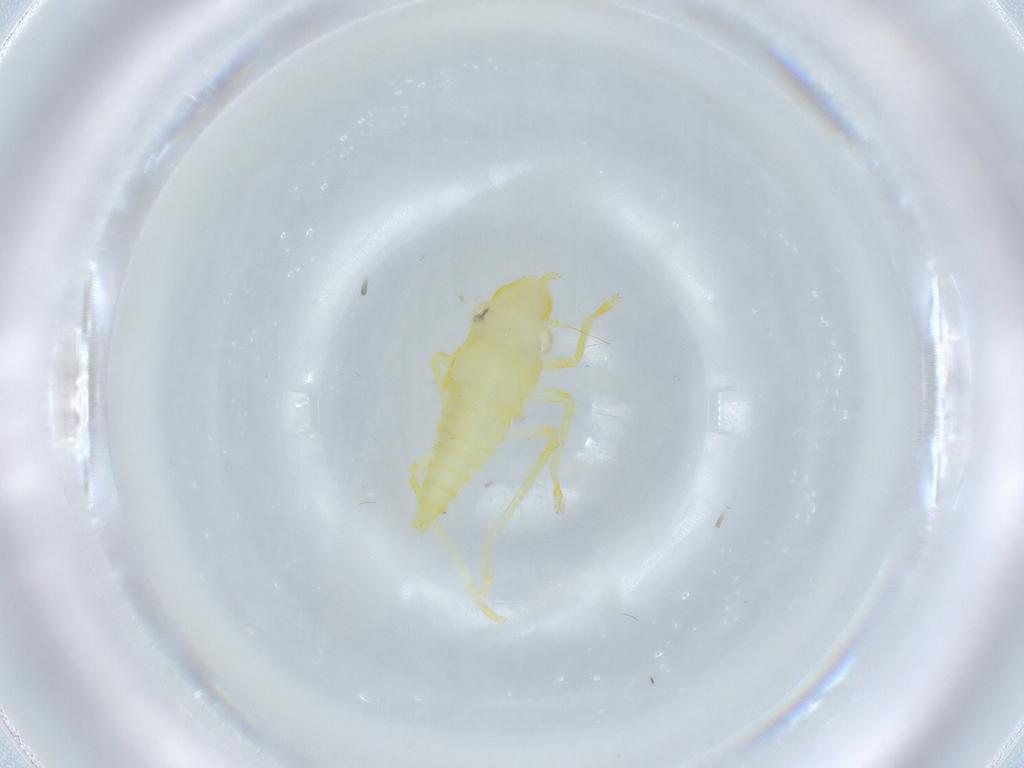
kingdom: Animalia
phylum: Arthropoda
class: Insecta
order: Hemiptera
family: Cicadellidae
